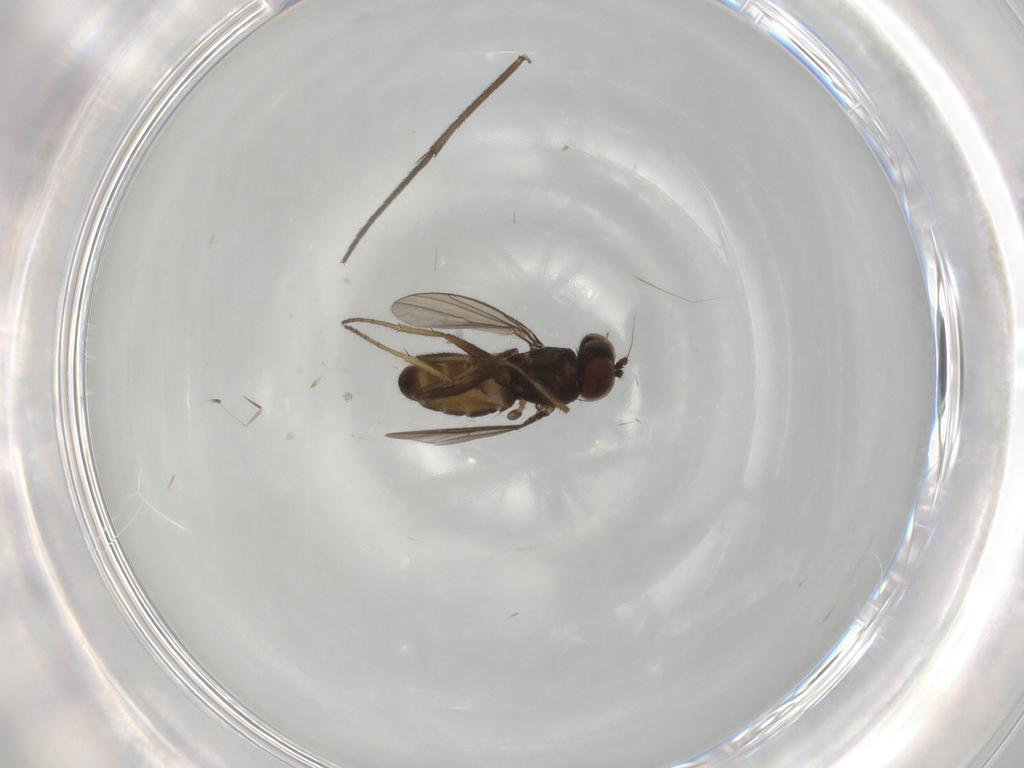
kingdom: Animalia
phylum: Arthropoda
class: Insecta
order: Diptera
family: Dolichopodidae
